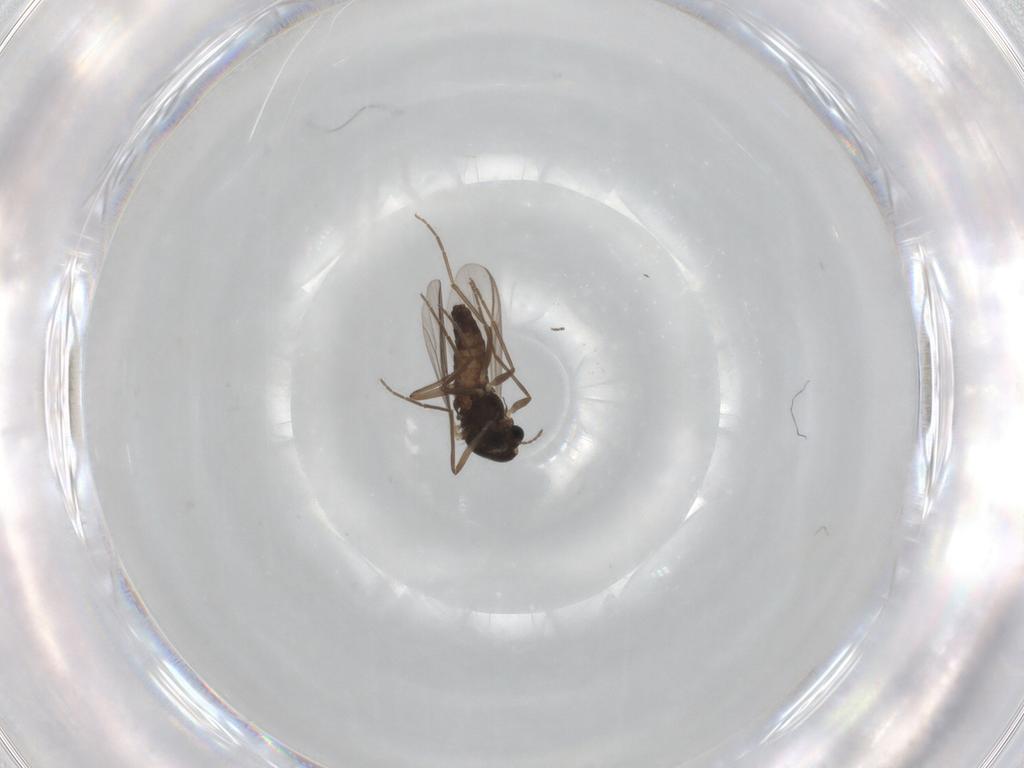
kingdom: Animalia
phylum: Arthropoda
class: Insecta
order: Diptera
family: Chironomidae
